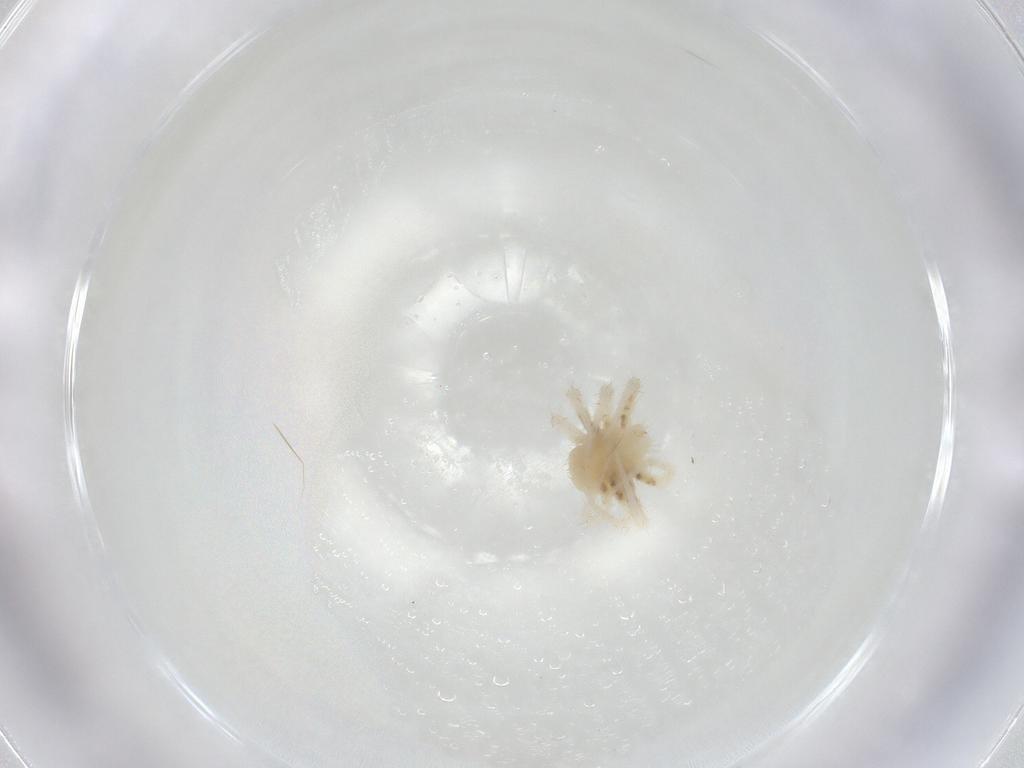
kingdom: Animalia
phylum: Arthropoda
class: Arachnida
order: Trombidiformes
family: Anystidae
